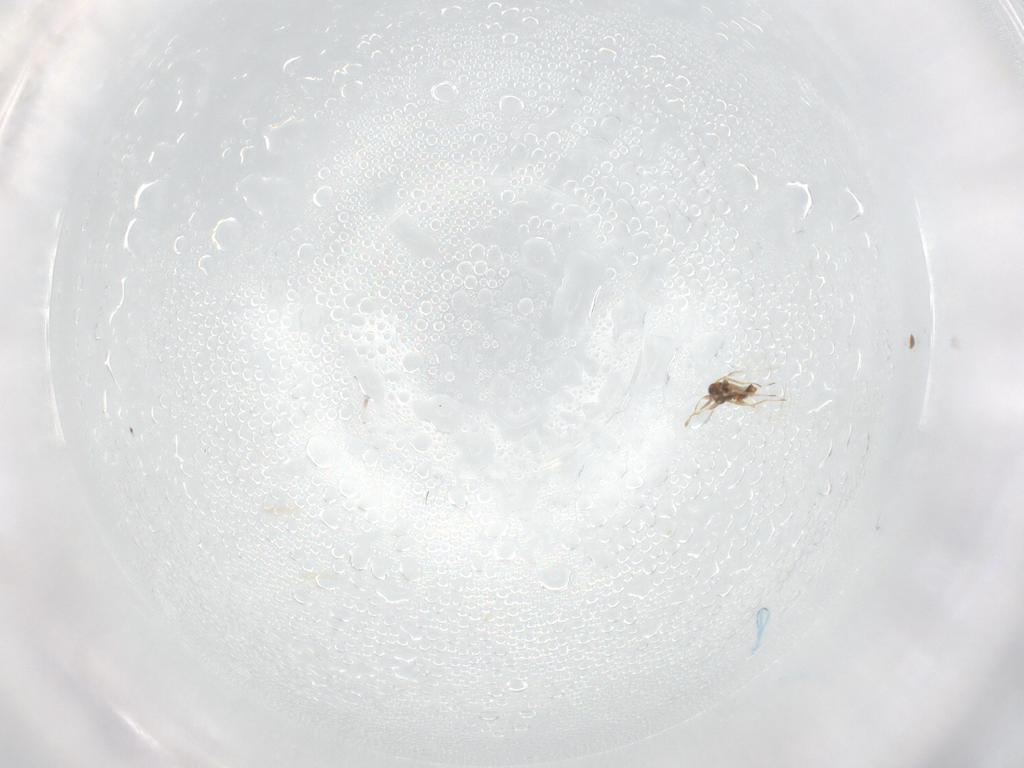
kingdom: Animalia
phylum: Arthropoda
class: Insecta
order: Hymenoptera
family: Trichogrammatidae
